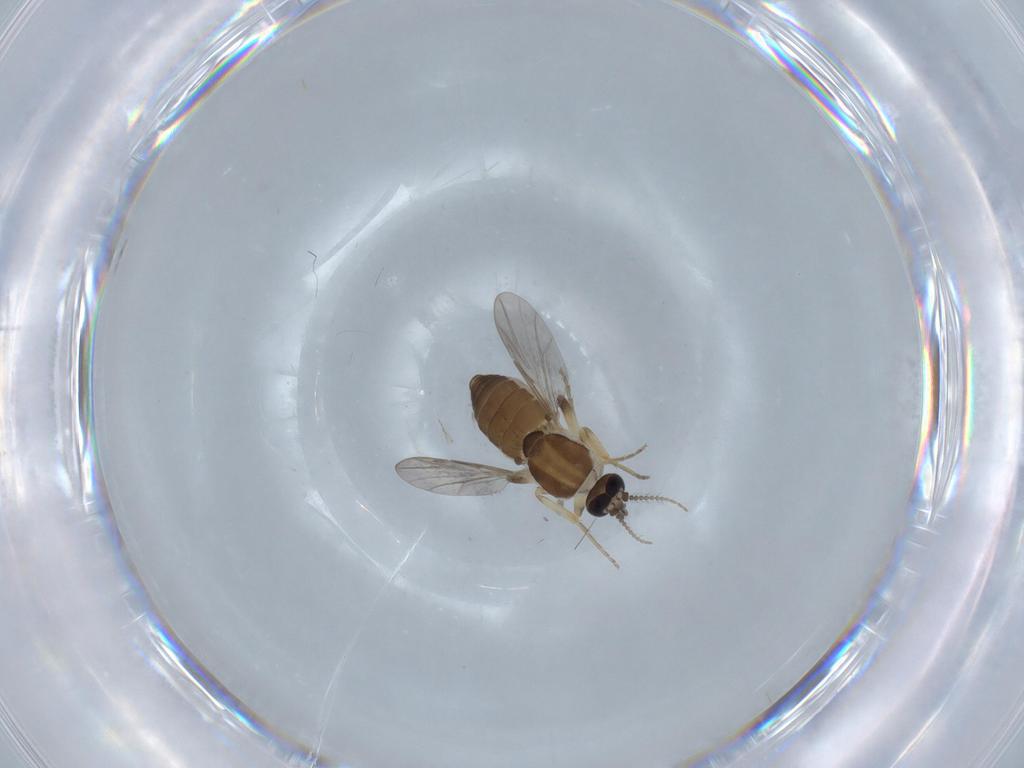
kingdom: Animalia
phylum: Arthropoda
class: Insecta
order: Diptera
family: Ceratopogonidae
